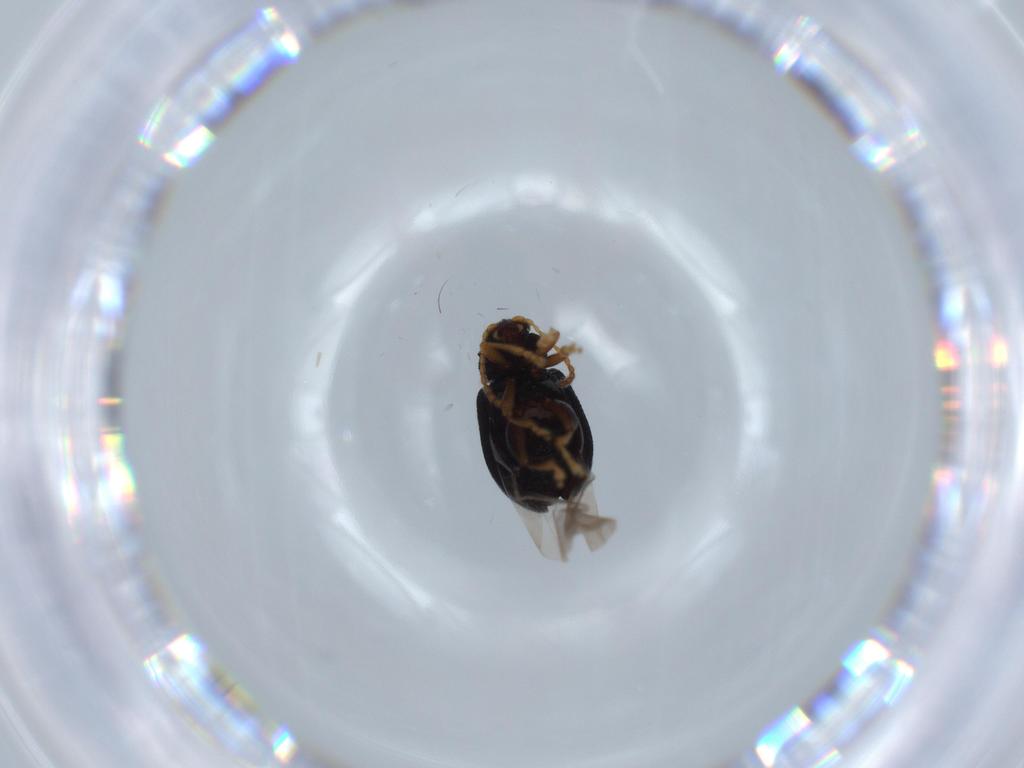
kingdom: Animalia
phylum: Arthropoda
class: Insecta
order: Coleoptera
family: Chrysomelidae
